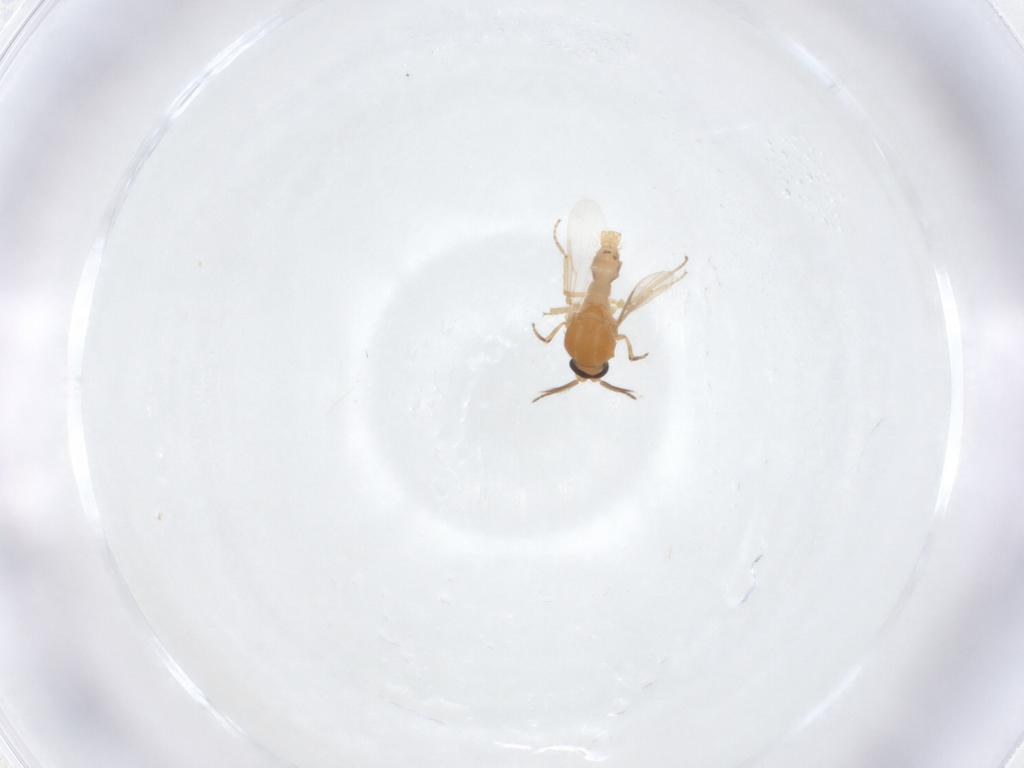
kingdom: Animalia
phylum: Arthropoda
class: Insecta
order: Diptera
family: Ceratopogonidae
